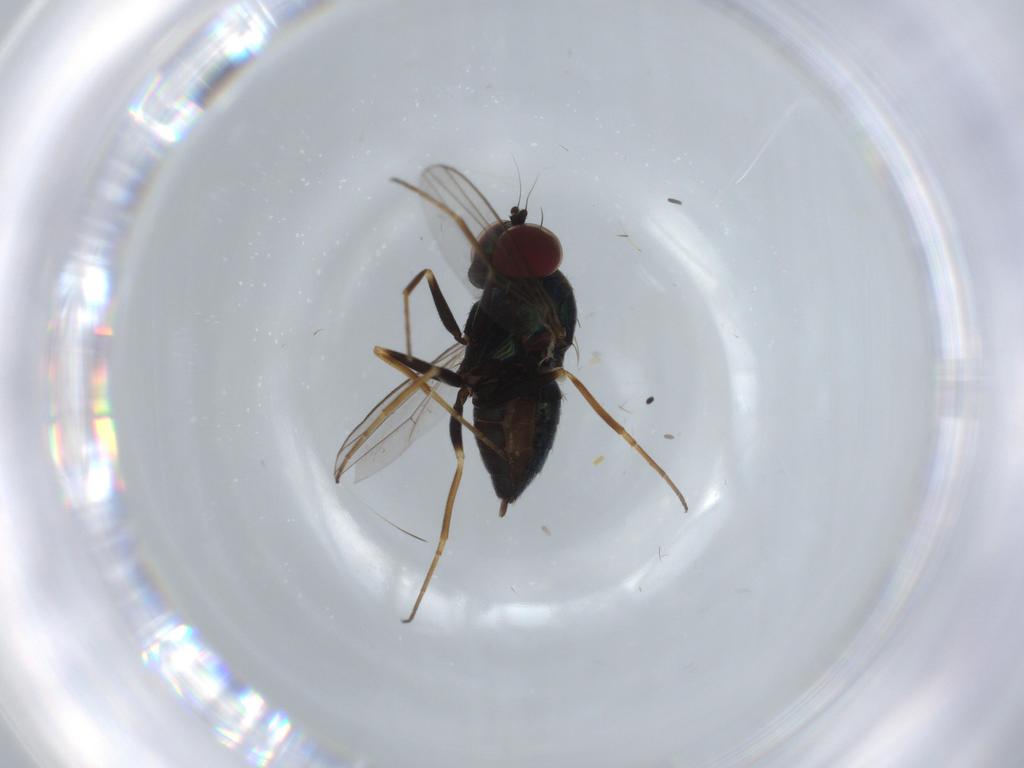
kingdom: Animalia
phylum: Arthropoda
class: Insecta
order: Diptera
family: Dolichopodidae
